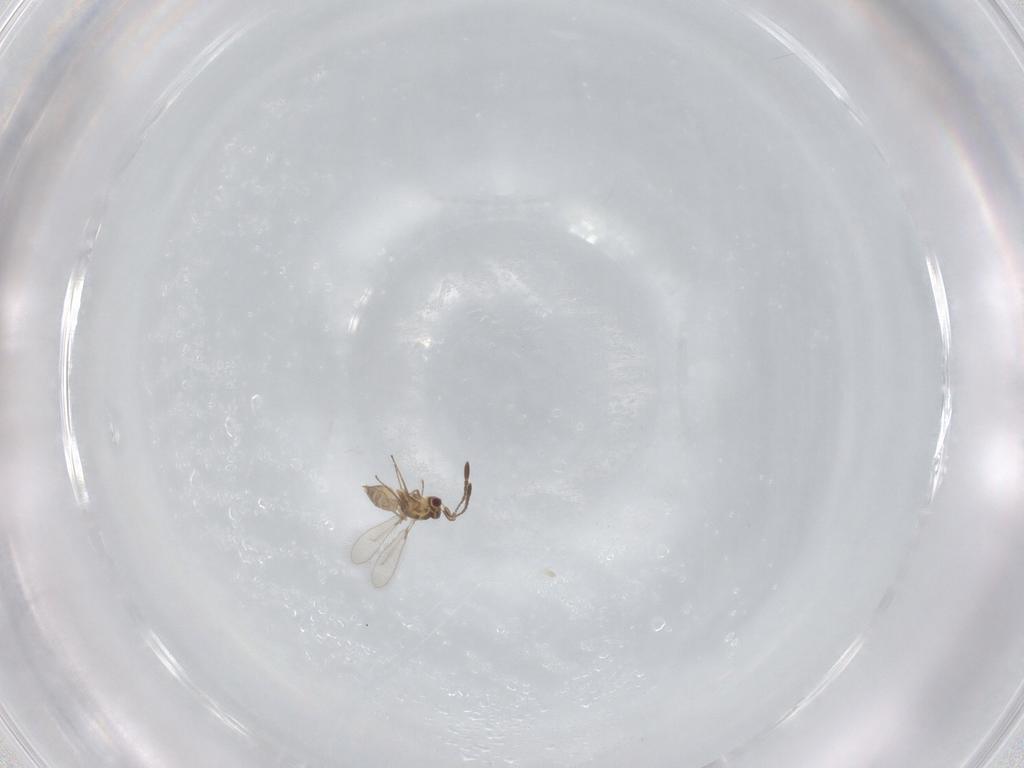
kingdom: Animalia
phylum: Arthropoda
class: Insecta
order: Hymenoptera
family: Mymaridae
